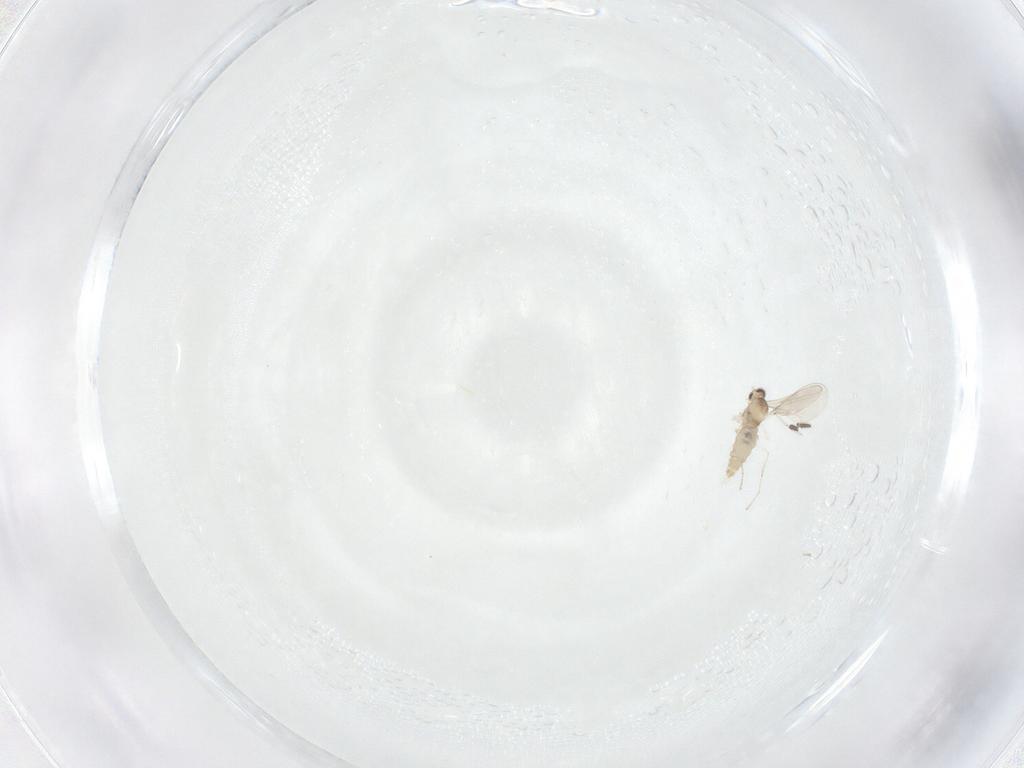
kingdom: Animalia
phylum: Arthropoda
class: Insecta
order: Diptera
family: Cecidomyiidae
